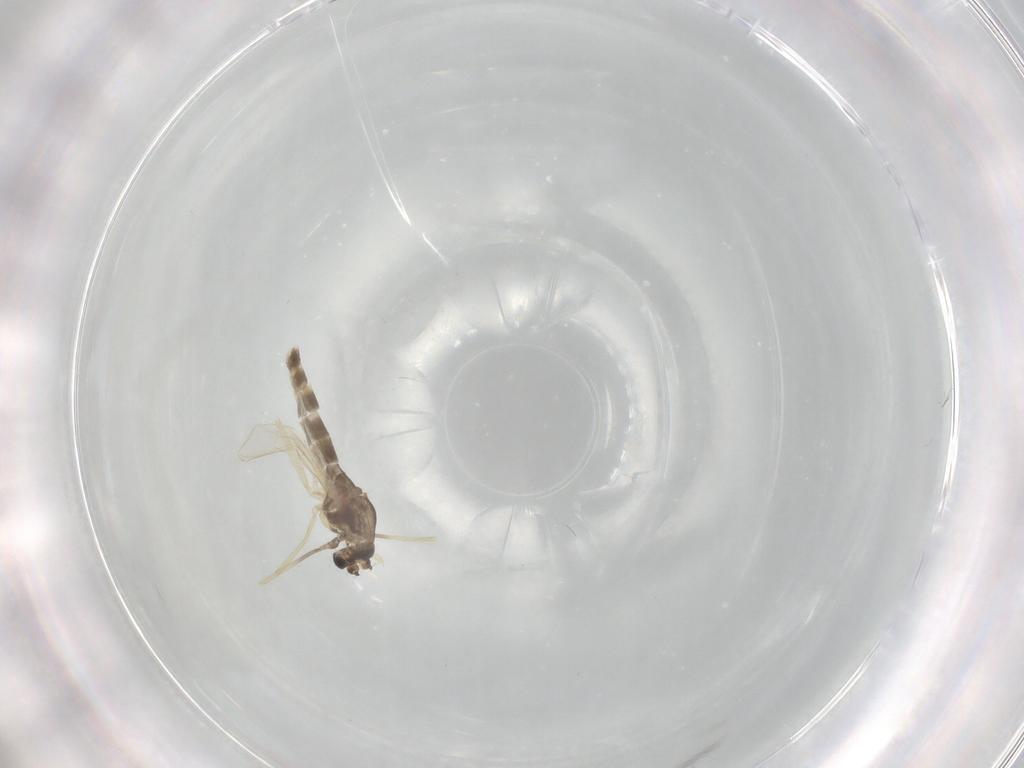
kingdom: Animalia
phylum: Arthropoda
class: Insecta
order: Diptera
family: Chironomidae
